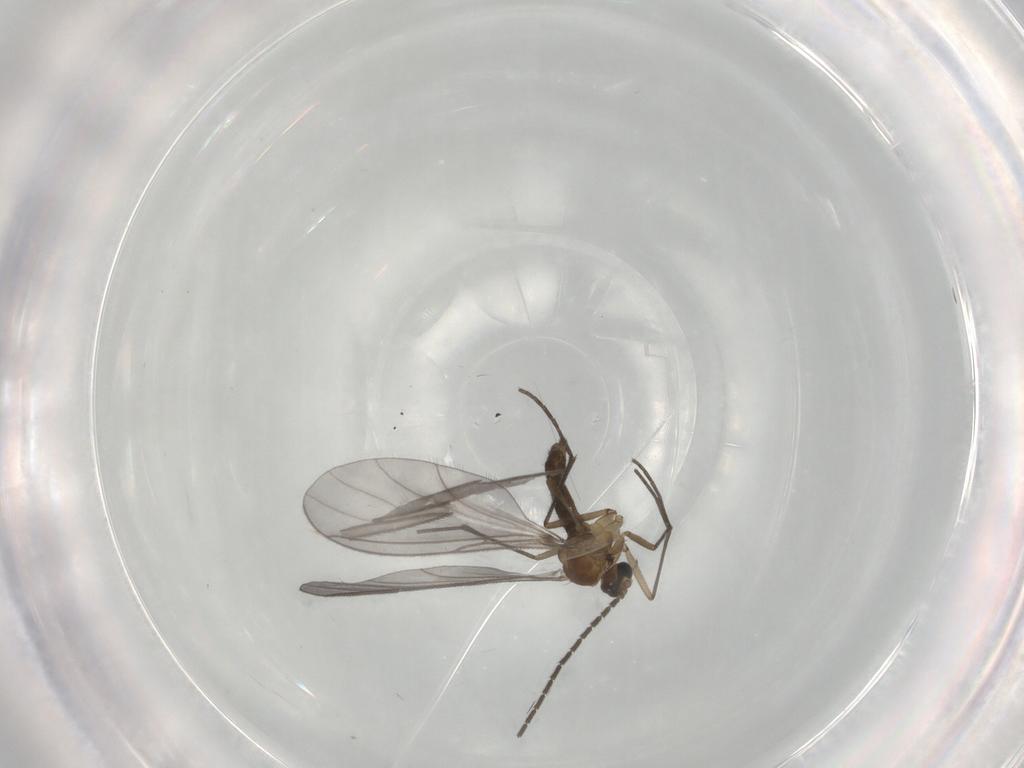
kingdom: Animalia
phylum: Arthropoda
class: Insecta
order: Diptera
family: Sciaridae
